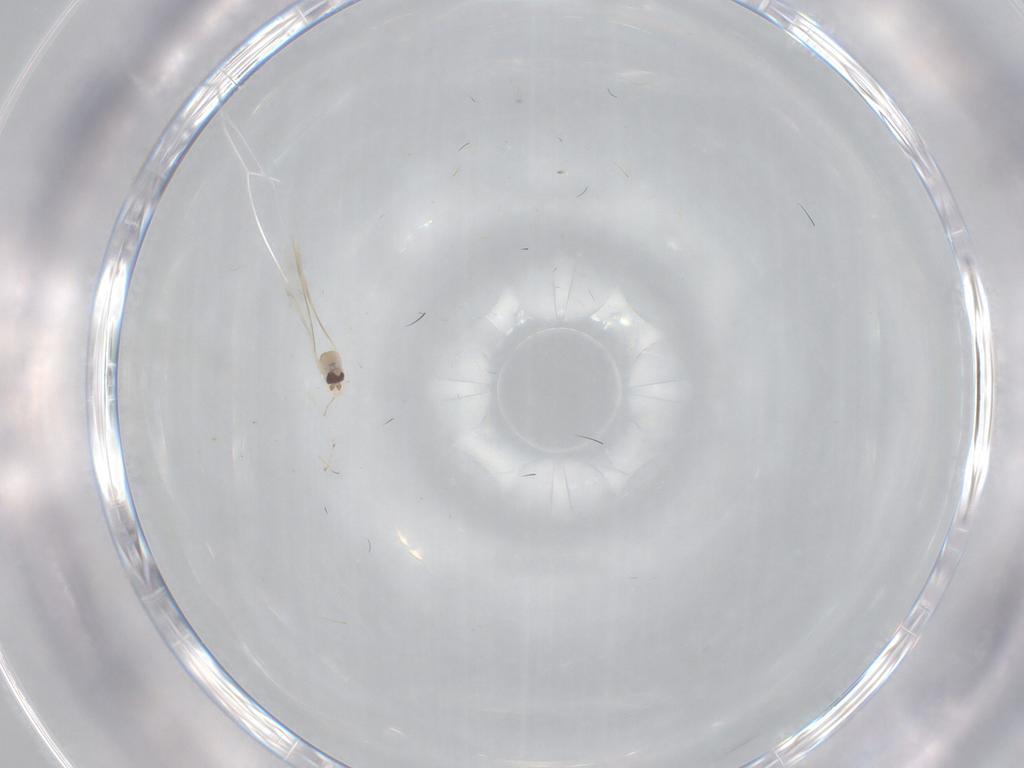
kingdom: Animalia
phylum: Arthropoda
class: Insecta
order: Diptera
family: Cecidomyiidae
